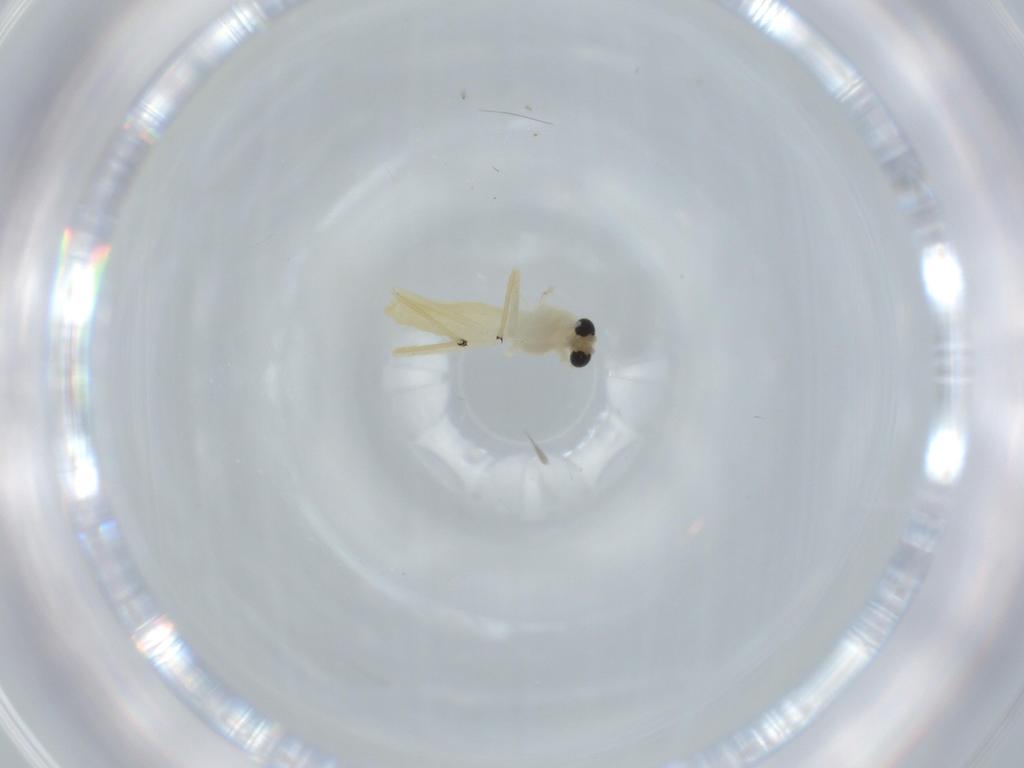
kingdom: Animalia
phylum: Arthropoda
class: Insecta
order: Diptera
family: Chironomidae
